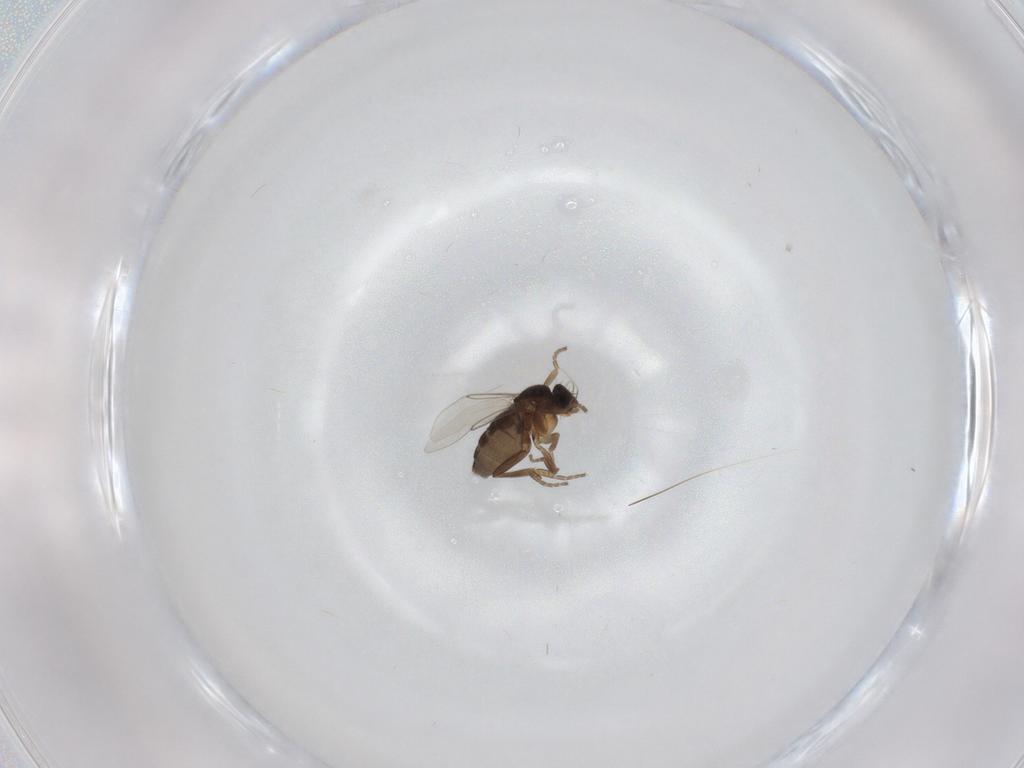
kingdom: Animalia
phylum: Arthropoda
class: Insecta
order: Diptera
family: Phoridae
